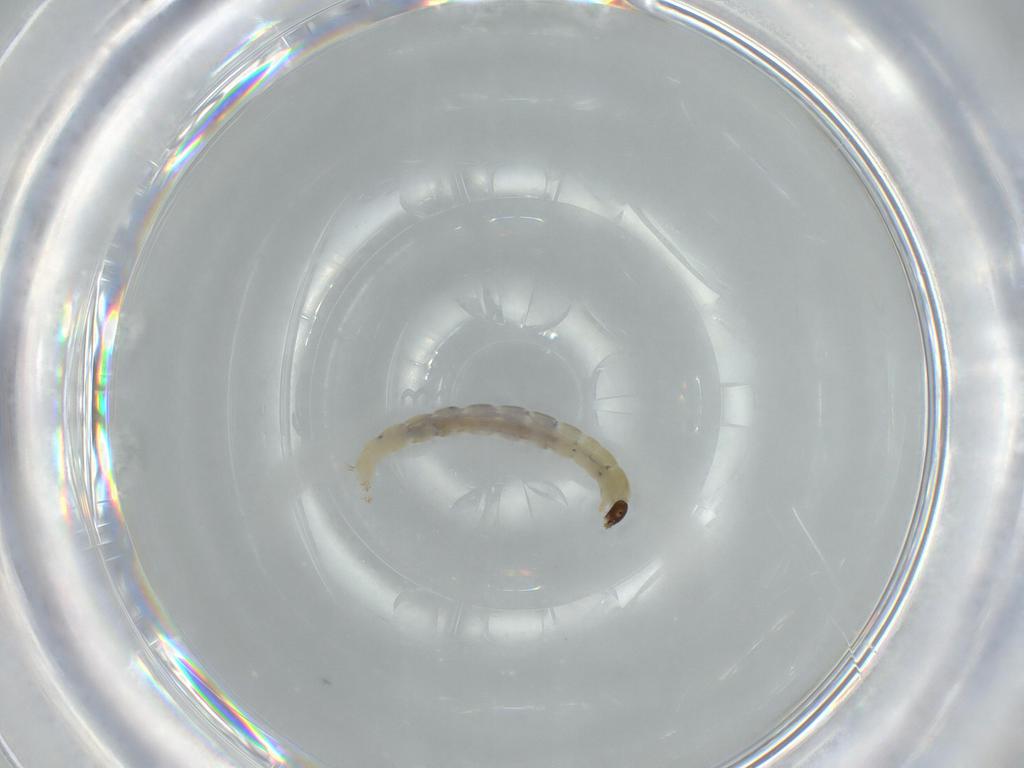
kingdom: Animalia
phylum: Arthropoda
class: Insecta
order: Diptera
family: Chironomidae
